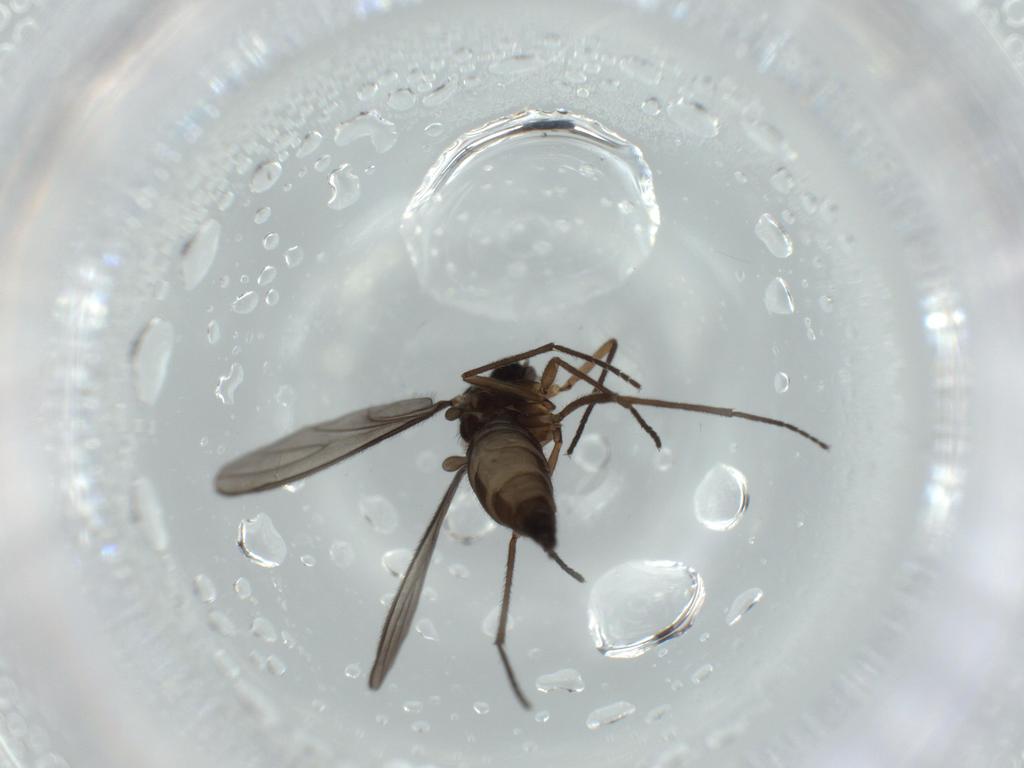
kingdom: Animalia
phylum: Arthropoda
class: Insecta
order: Diptera
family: Sciaridae
